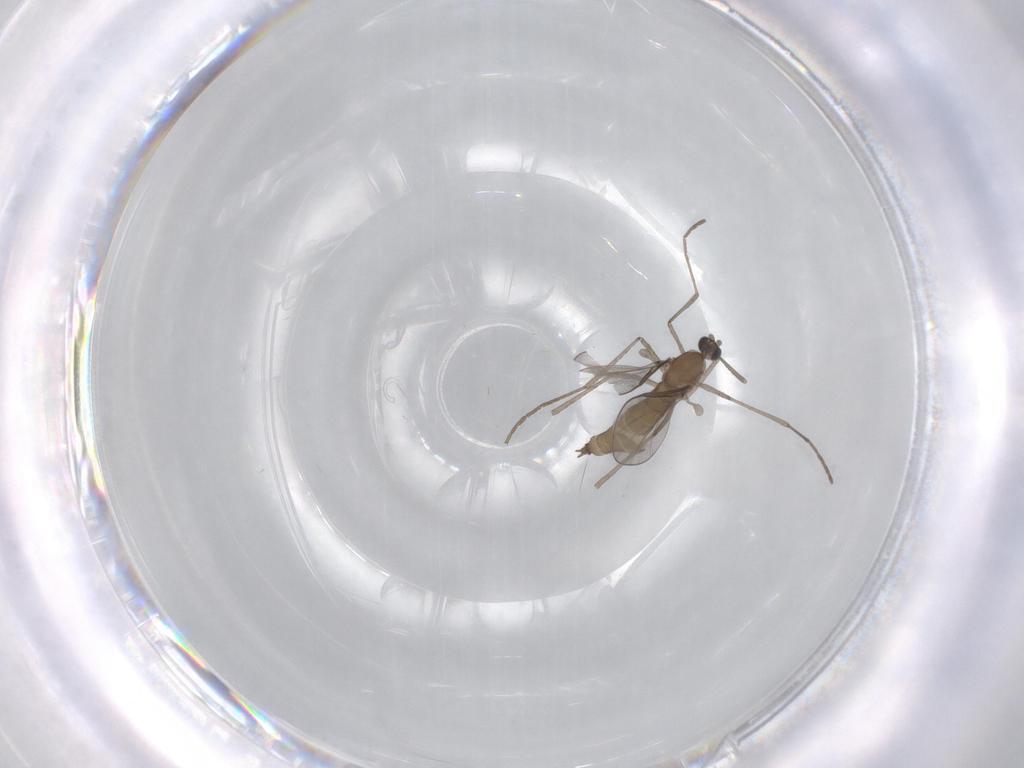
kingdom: Animalia
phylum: Arthropoda
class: Insecta
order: Diptera
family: Cecidomyiidae
